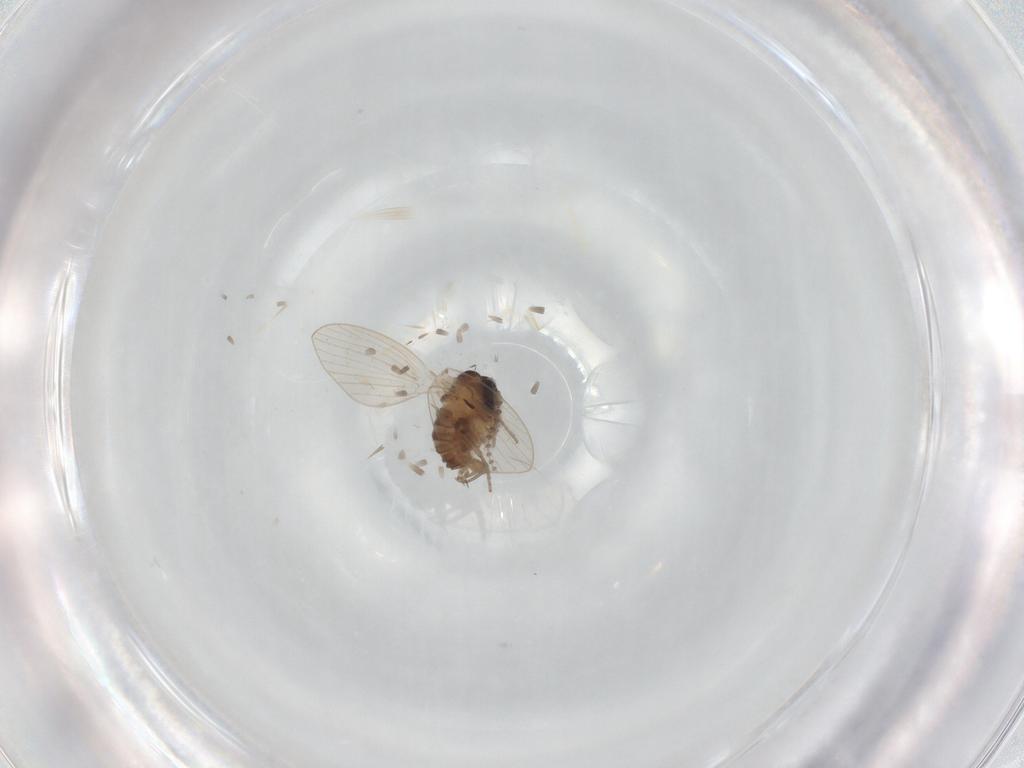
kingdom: Animalia
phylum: Arthropoda
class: Insecta
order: Diptera
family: Psychodidae
